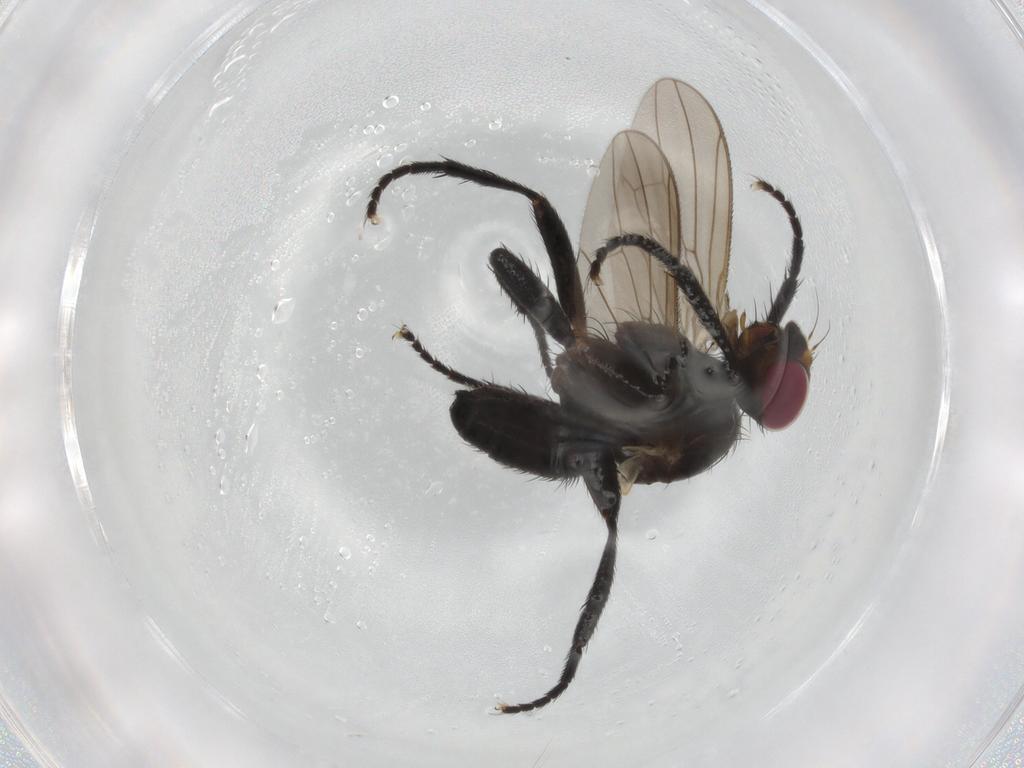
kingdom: Animalia
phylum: Arthropoda
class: Insecta
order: Diptera
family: Tachinidae
